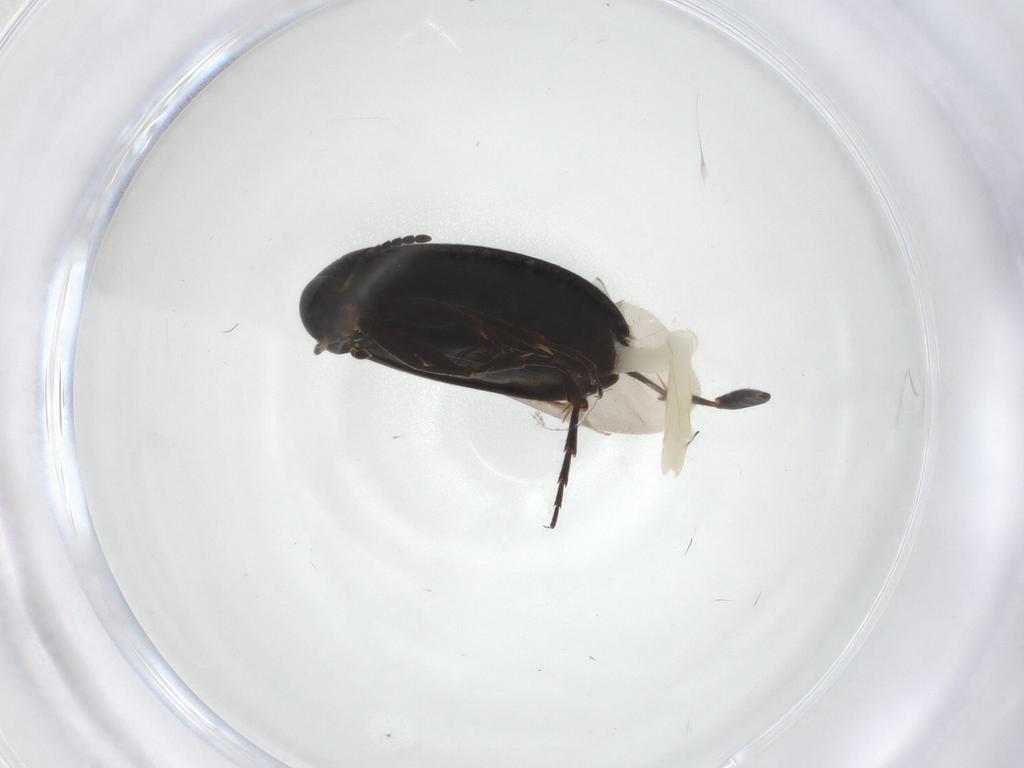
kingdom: Animalia
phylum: Arthropoda
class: Insecta
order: Coleoptera
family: Scraptiidae
